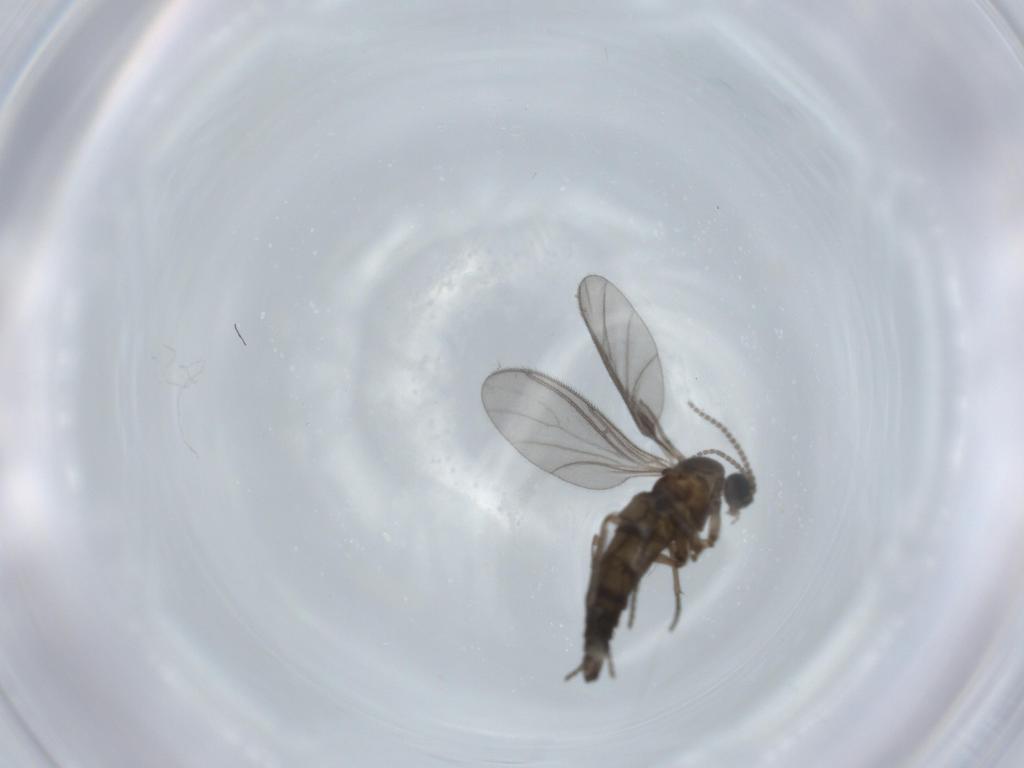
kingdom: Animalia
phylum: Arthropoda
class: Insecta
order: Diptera
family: Sciaridae
